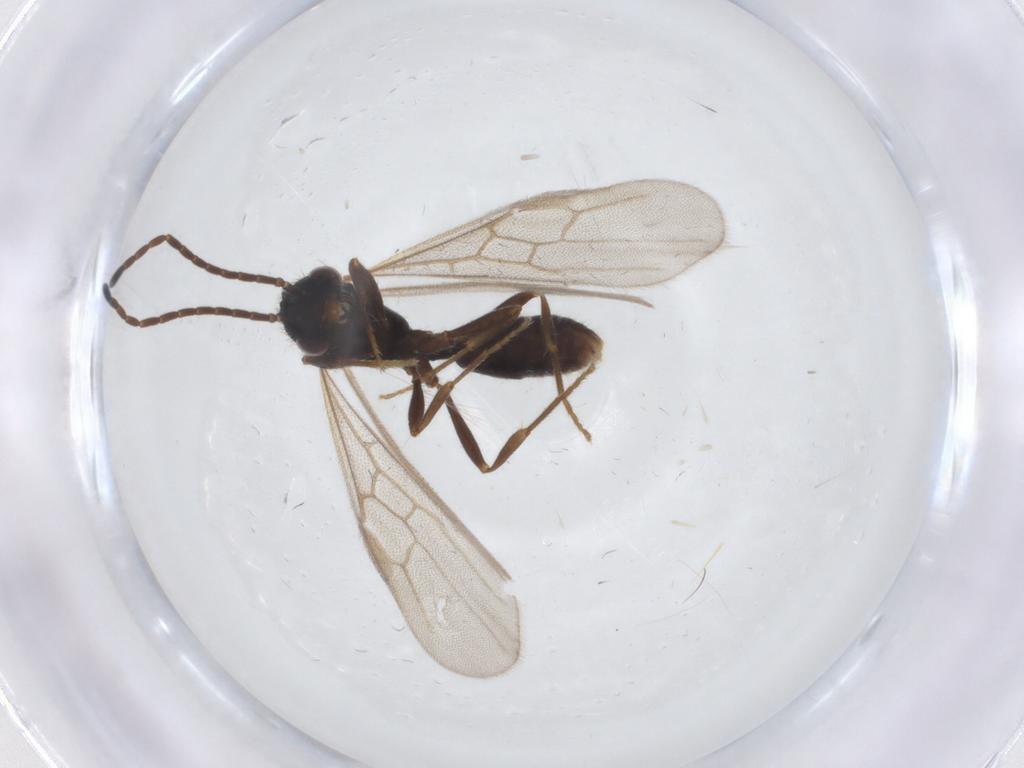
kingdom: Animalia
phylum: Arthropoda
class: Insecta
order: Hymenoptera
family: Formicidae
